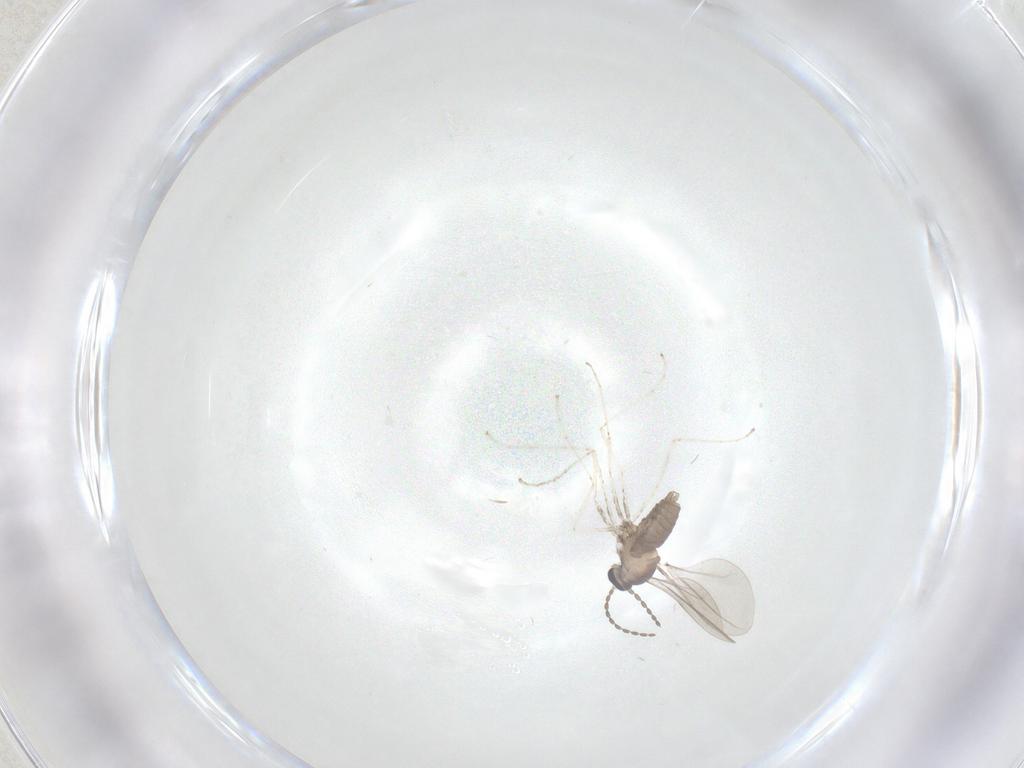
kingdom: Animalia
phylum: Arthropoda
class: Insecta
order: Diptera
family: Cecidomyiidae
